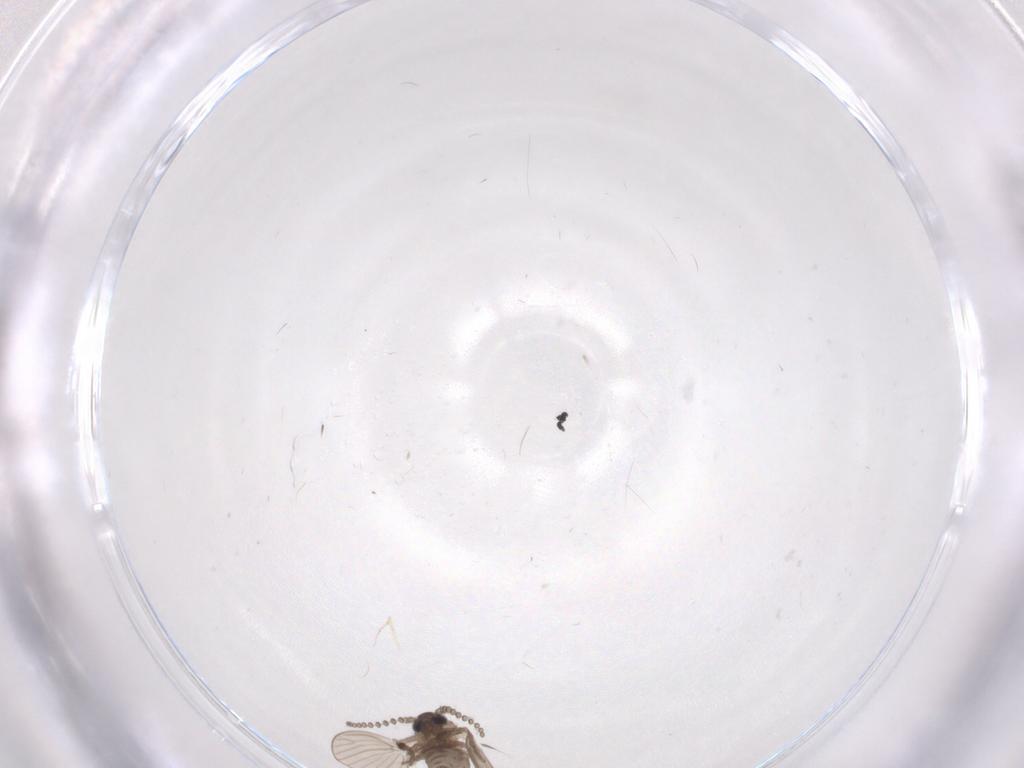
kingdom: Animalia
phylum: Arthropoda
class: Insecta
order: Diptera
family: Psychodidae
